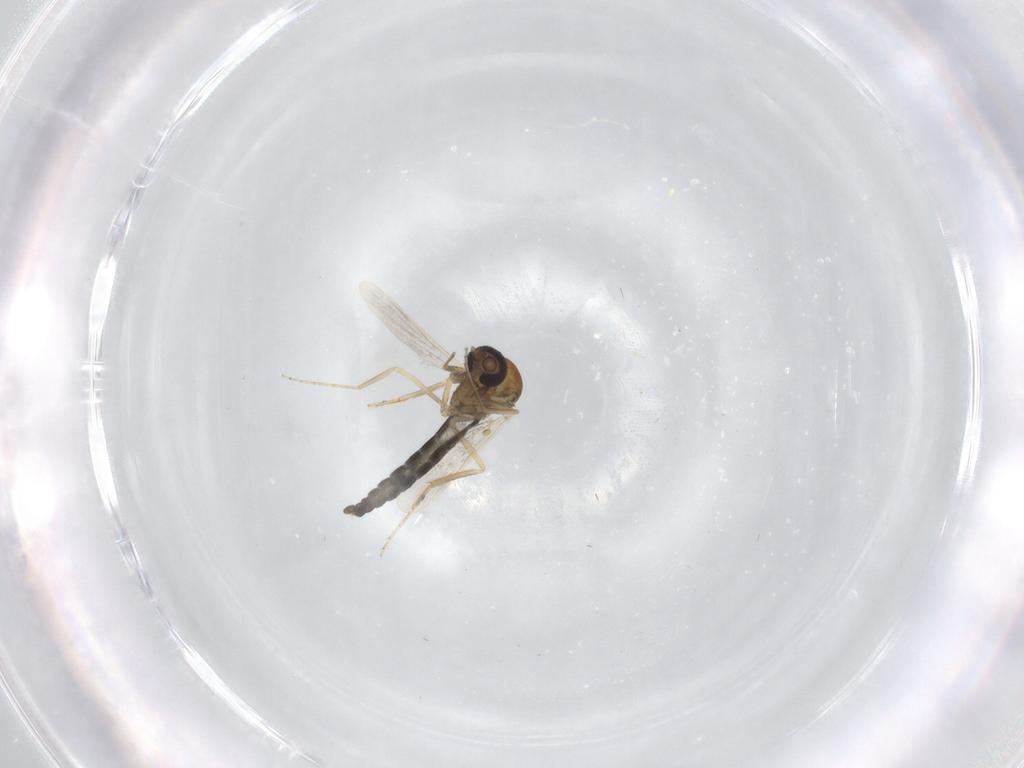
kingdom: Animalia
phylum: Arthropoda
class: Insecta
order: Diptera
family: Ceratopogonidae
